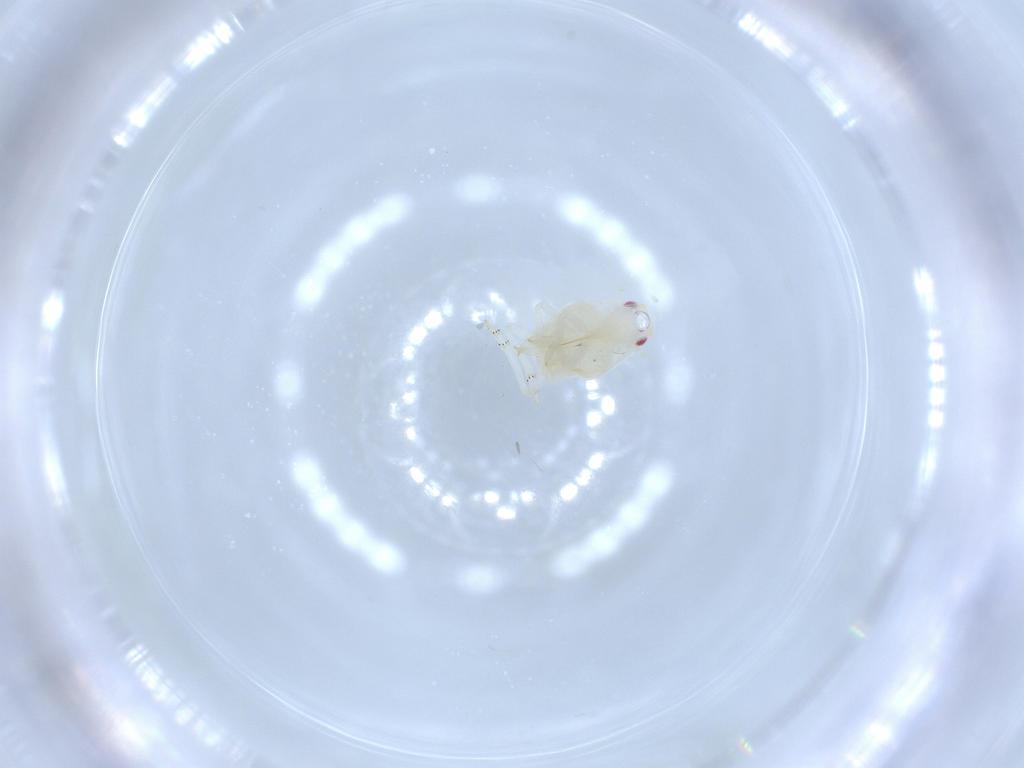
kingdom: Animalia
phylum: Arthropoda
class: Insecta
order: Hemiptera
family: Flatidae
